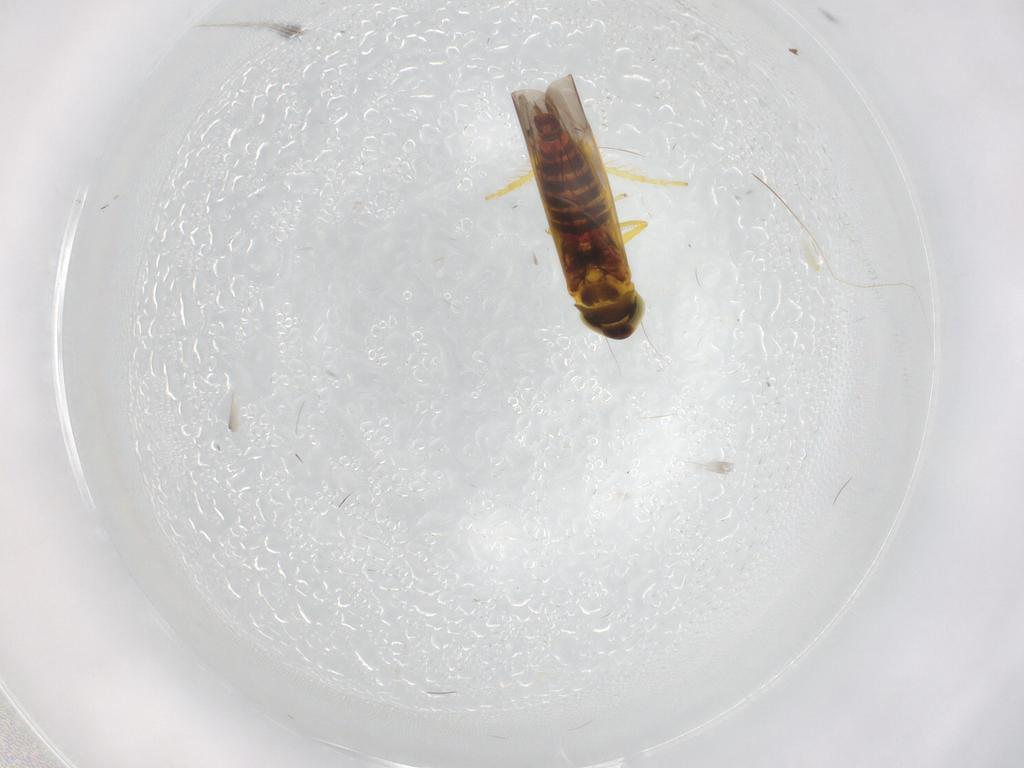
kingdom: Animalia
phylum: Arthropoda
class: Insecta
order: Hemiptera
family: Cicadellidae
